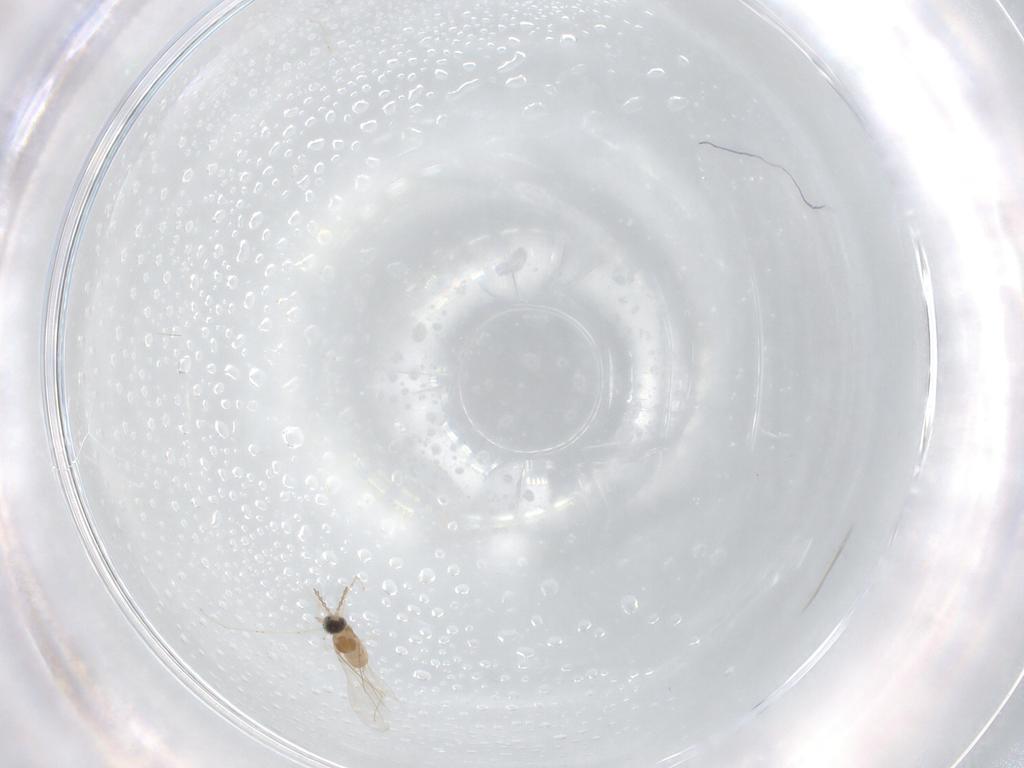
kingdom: Animalia
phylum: Arthropoda
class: Insecta
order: Diptera
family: Cecidomyiidae
